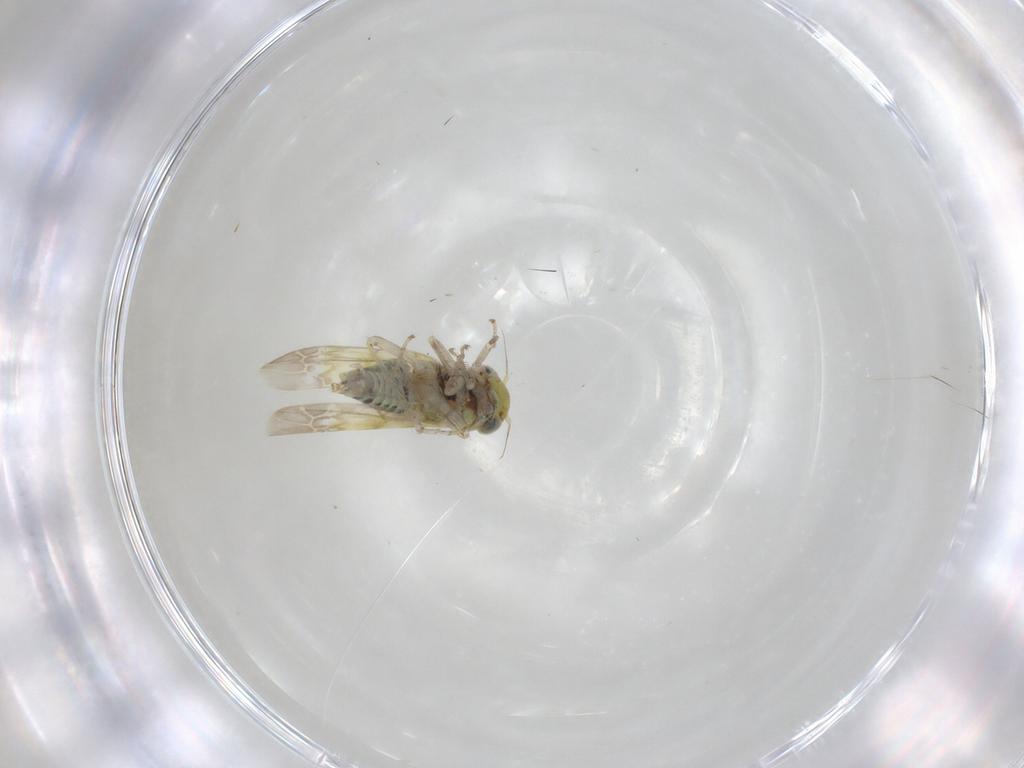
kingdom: Animalia
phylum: Arthropoda
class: Insecta
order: Hemiptera
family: Cicadellidae
